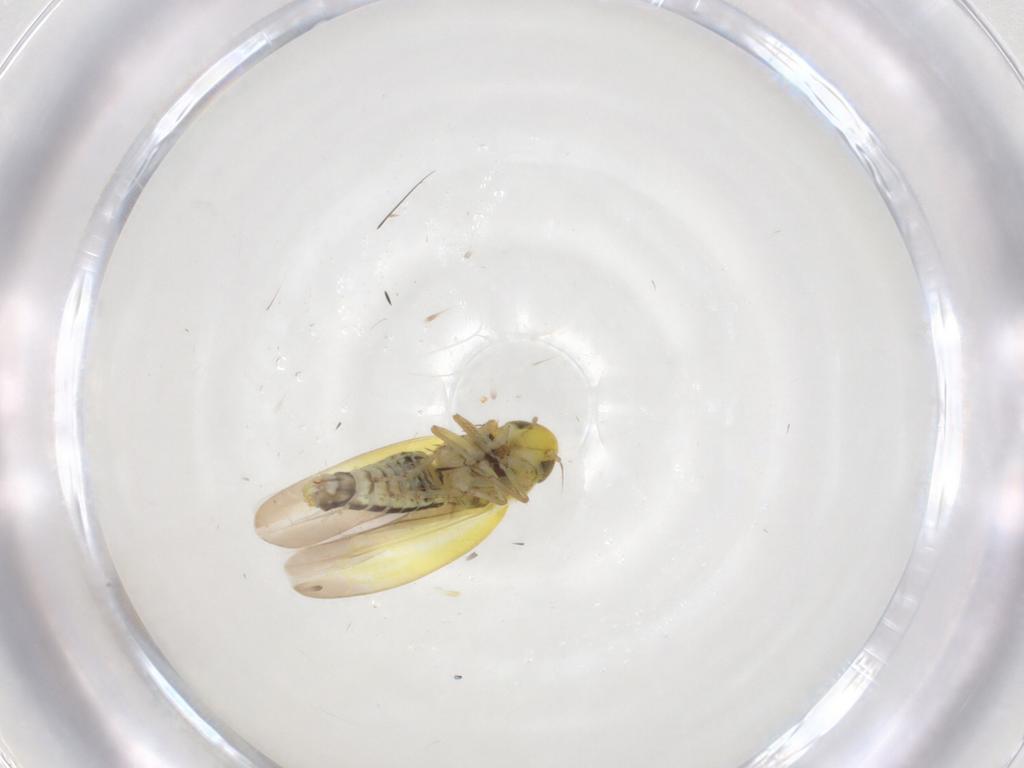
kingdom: Animalia
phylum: Arthropoda
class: Insecta
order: Hemiptera
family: Cicadellidae
